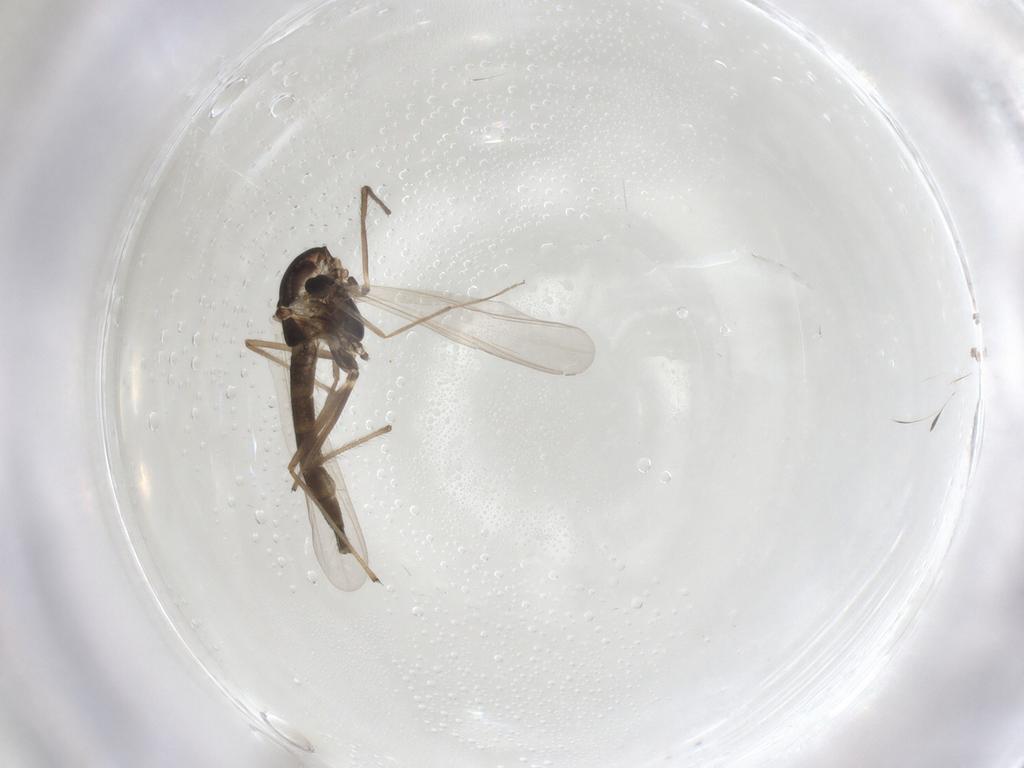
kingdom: Animalia
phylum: Arthropoda
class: Insecta
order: Diptera
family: Chironomidae
